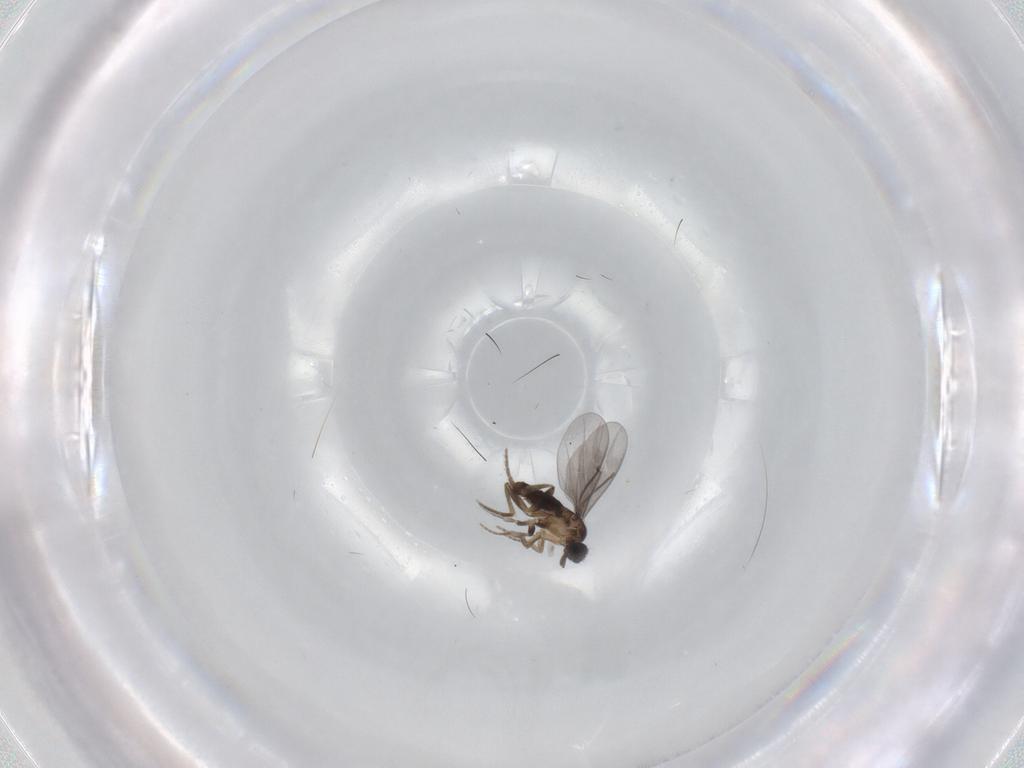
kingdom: Animalia
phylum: Arthropoda
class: Insecta
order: Diptera
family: Phoridae
